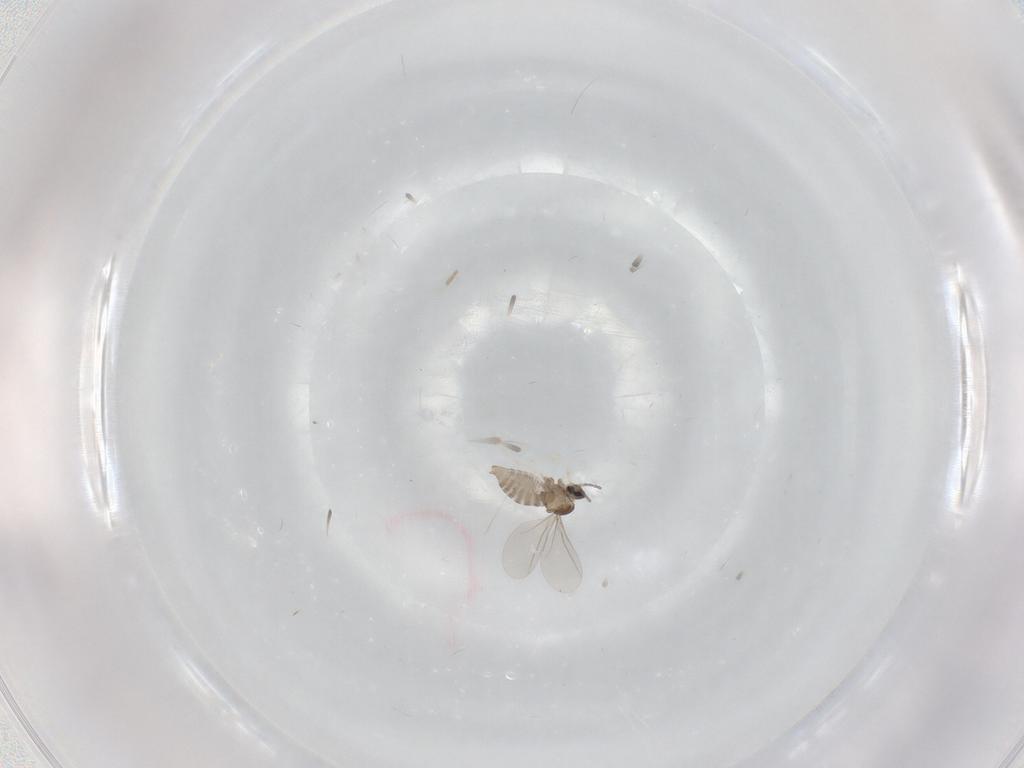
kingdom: Animalia
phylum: Arthropoda
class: Insecta
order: Diptera
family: Cecidomyiidae
